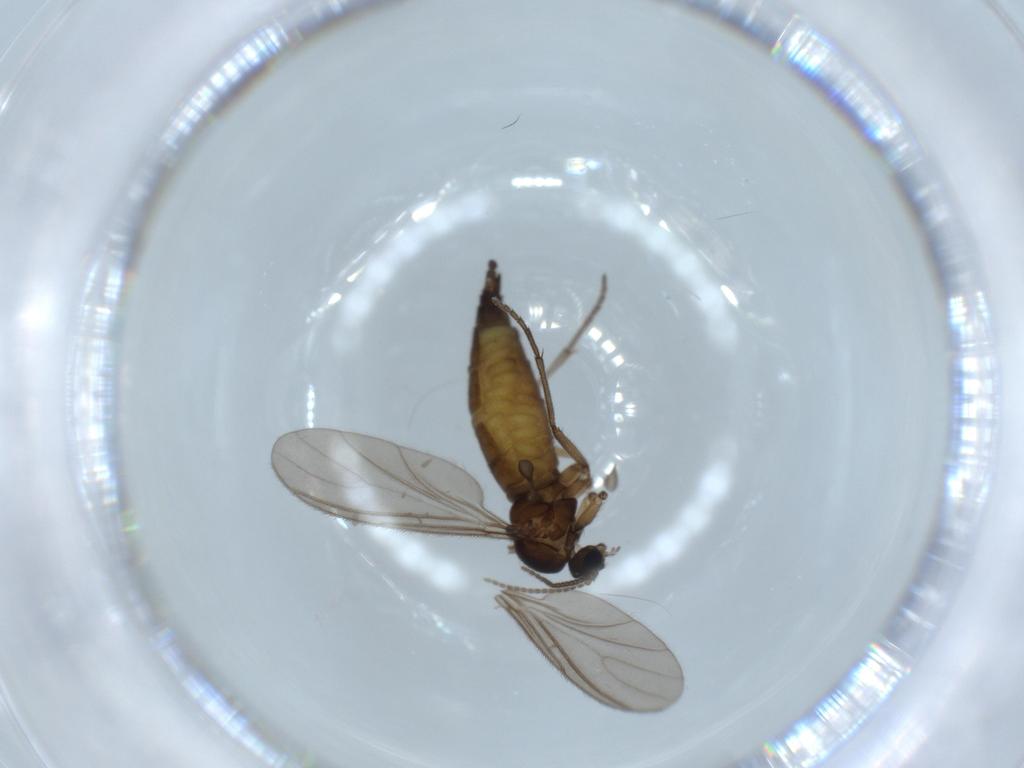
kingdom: Animalia
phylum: Arthropoda
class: Insecta
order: Diptera
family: Sciaridae
